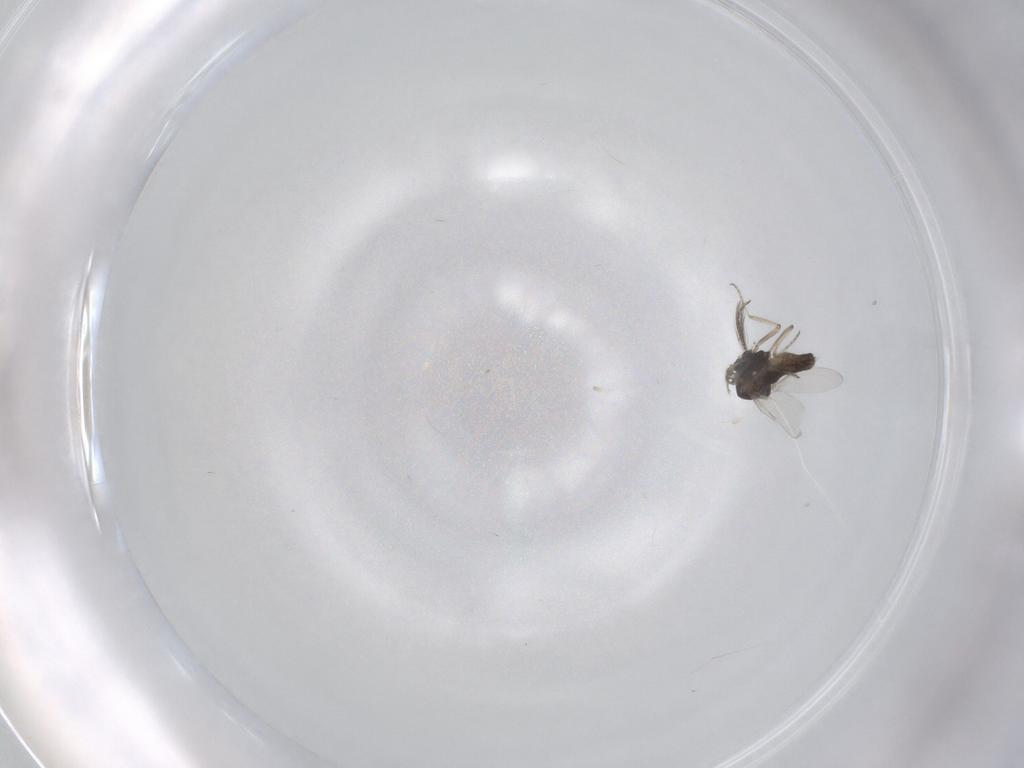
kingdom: Animalia
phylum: Arthropoda
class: Insecta
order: Diptera
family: Ceratopogonidae
